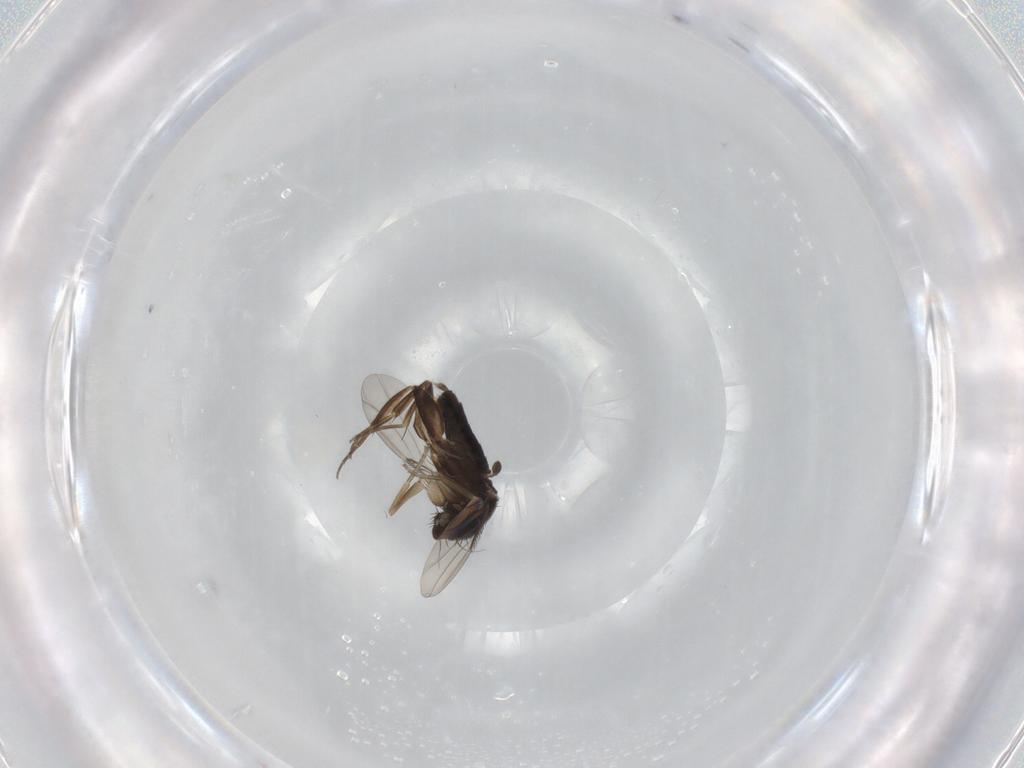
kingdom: Animalia
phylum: Arthropoda
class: Insecta
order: Diptera
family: Phoridae
